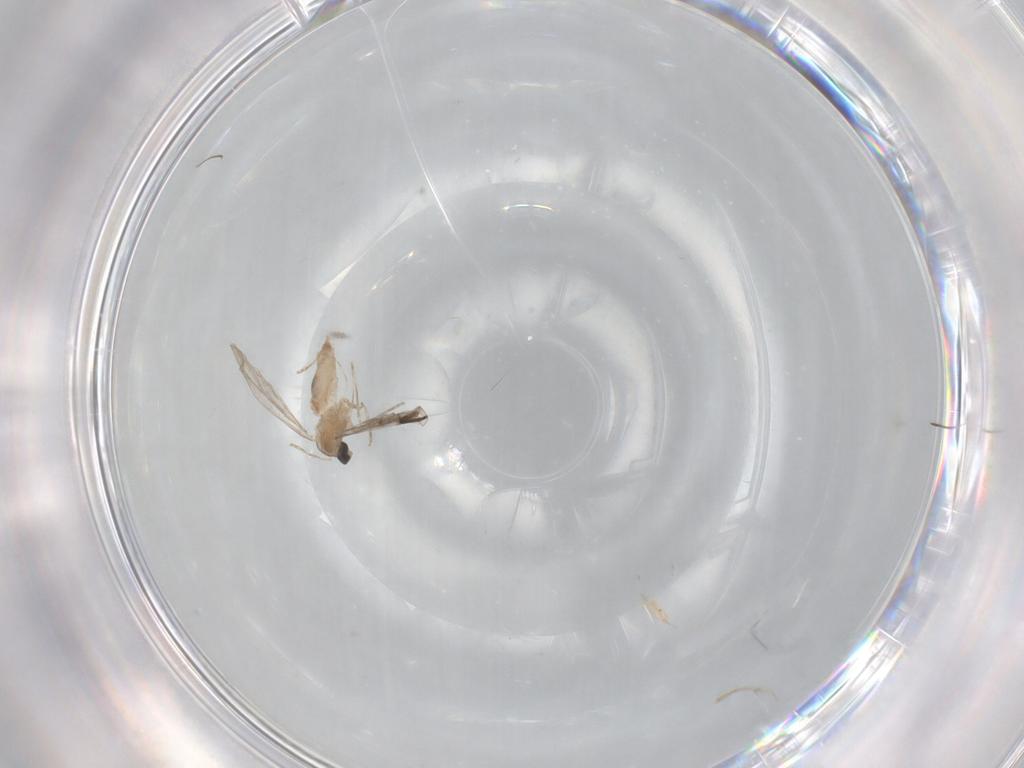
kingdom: Animalia
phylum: Arthropoda
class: Insecta
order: Diptera
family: Chironomidae
